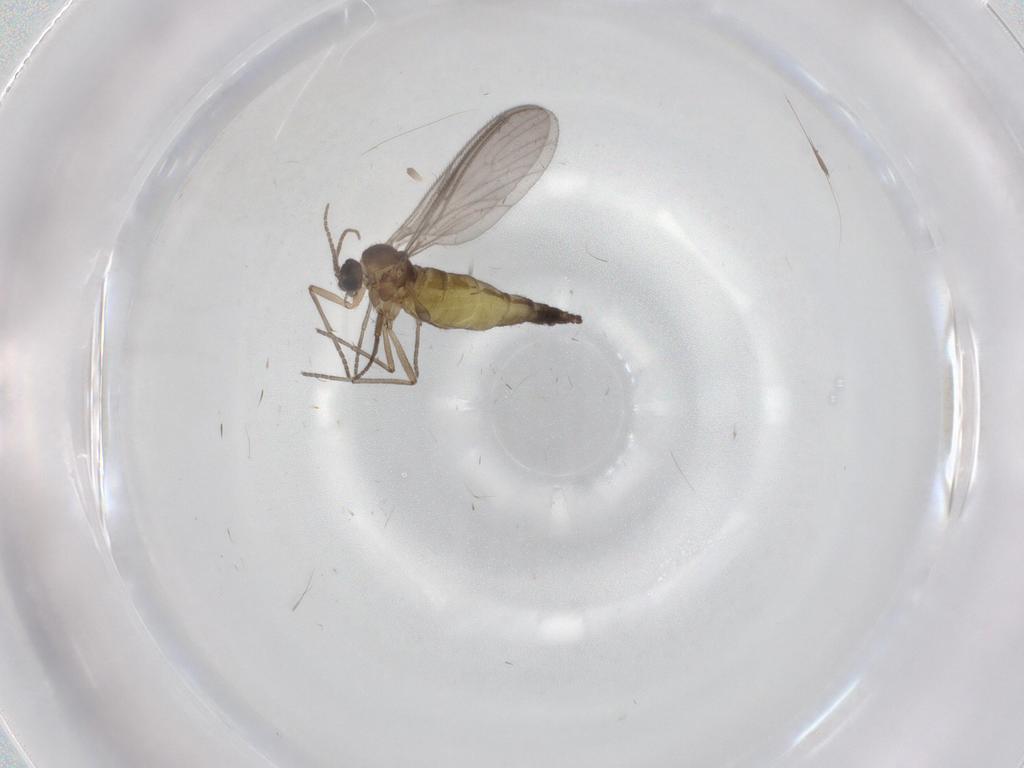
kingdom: Animalia
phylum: Arthropoda
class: Insecta
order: Diptera
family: Sciaridae
